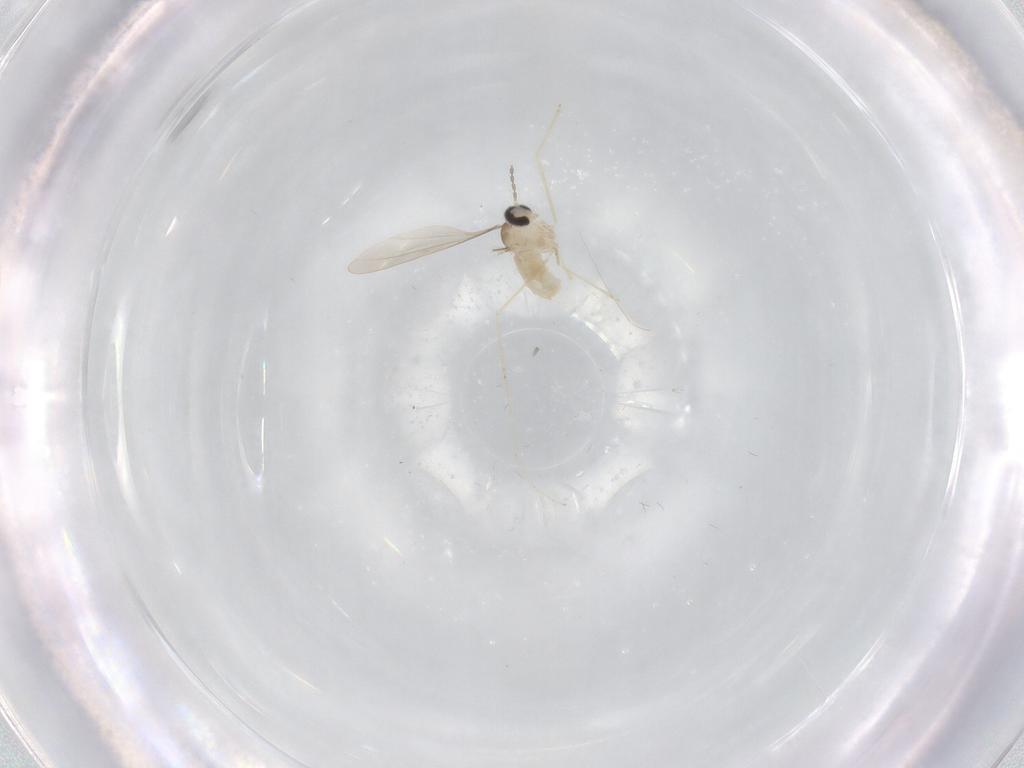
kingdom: Animalia
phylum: Arthropoda
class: Insecta
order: Diptera
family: Cecidomyiidae
